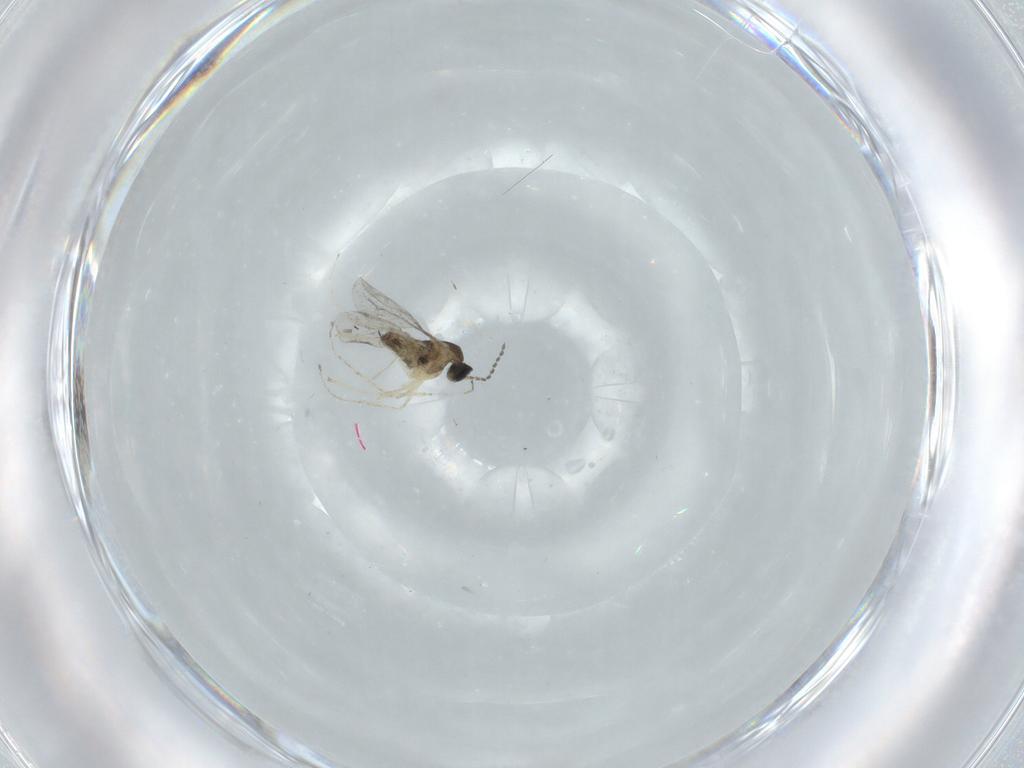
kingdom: Animalia
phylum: Arthropoda
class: Insecta
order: Diptera
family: Cecidomyiidae
